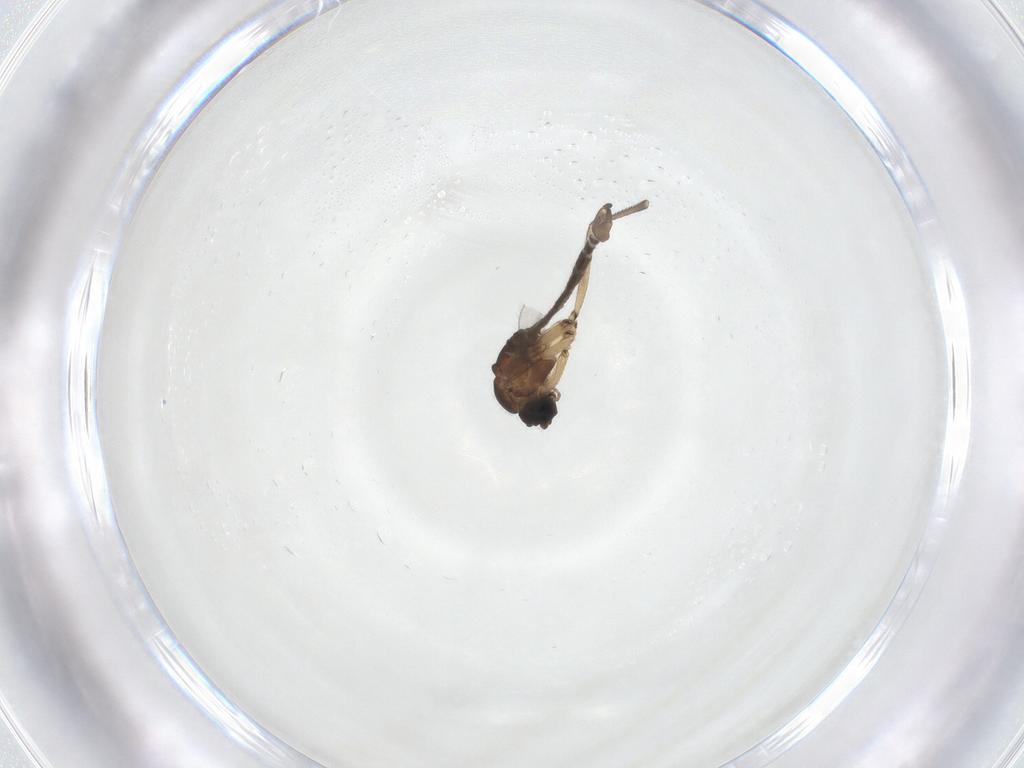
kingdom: Animalia
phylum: Arthropoda
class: Insecta
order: Diptera
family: Sciaridae
